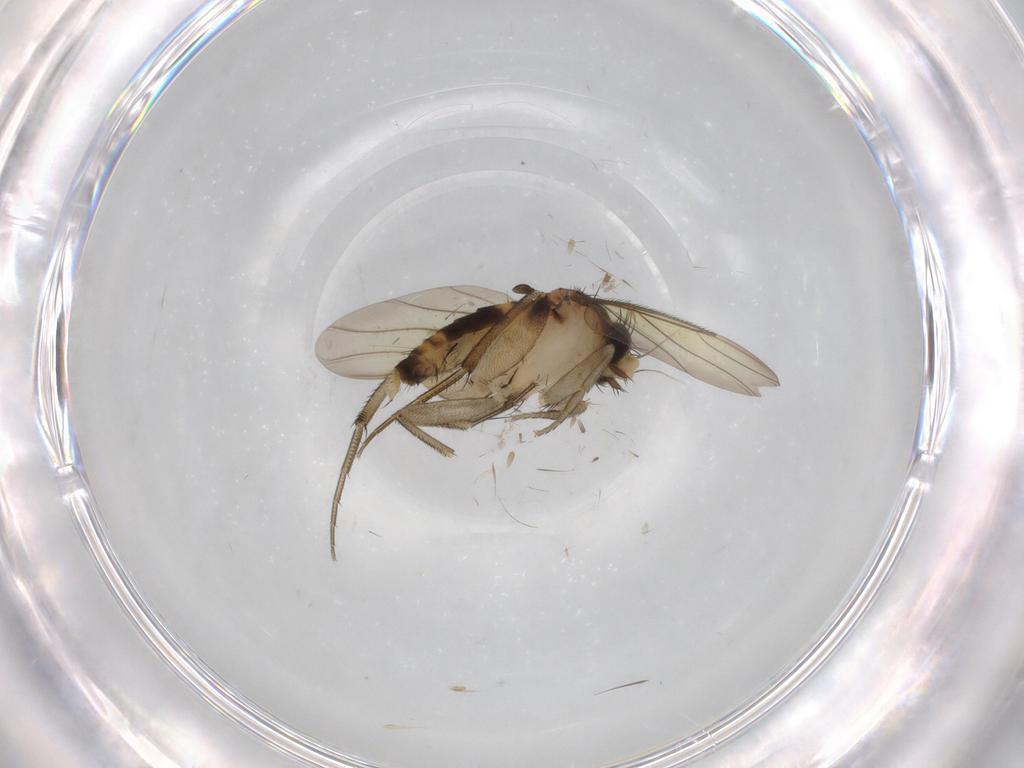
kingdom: Animalia
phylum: Arthropoda
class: Insecta
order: Diptera
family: Phoridae
